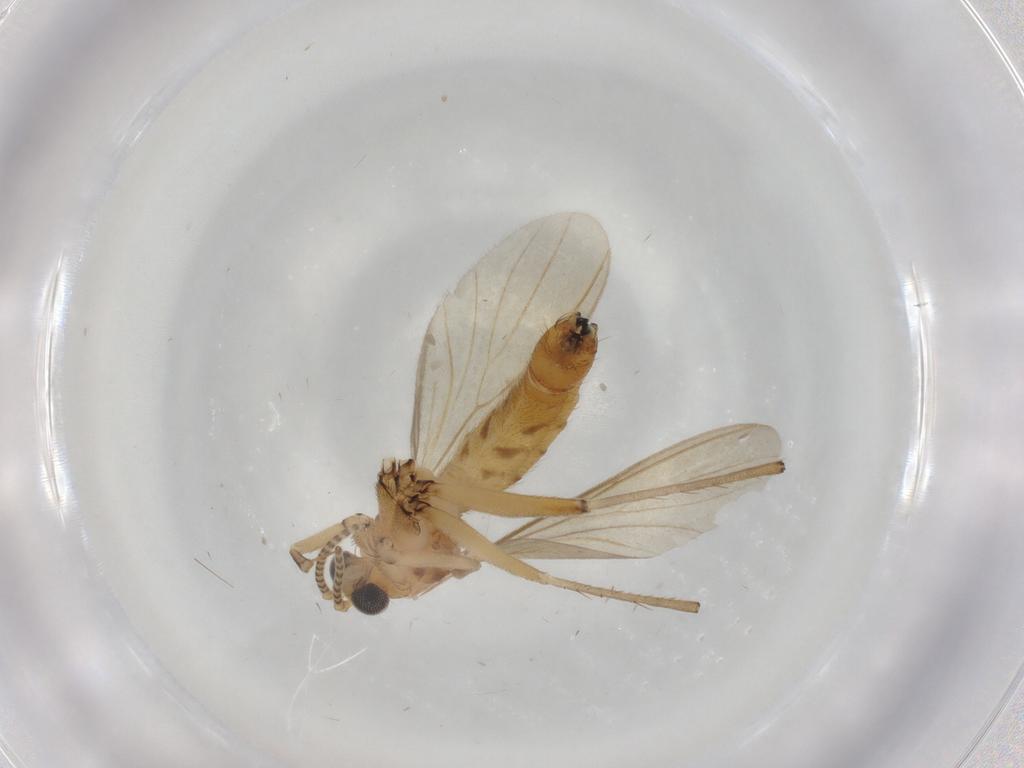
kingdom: Animalia
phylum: Arthropoda
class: Insecta
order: Diptera
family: Mycetophilidae
